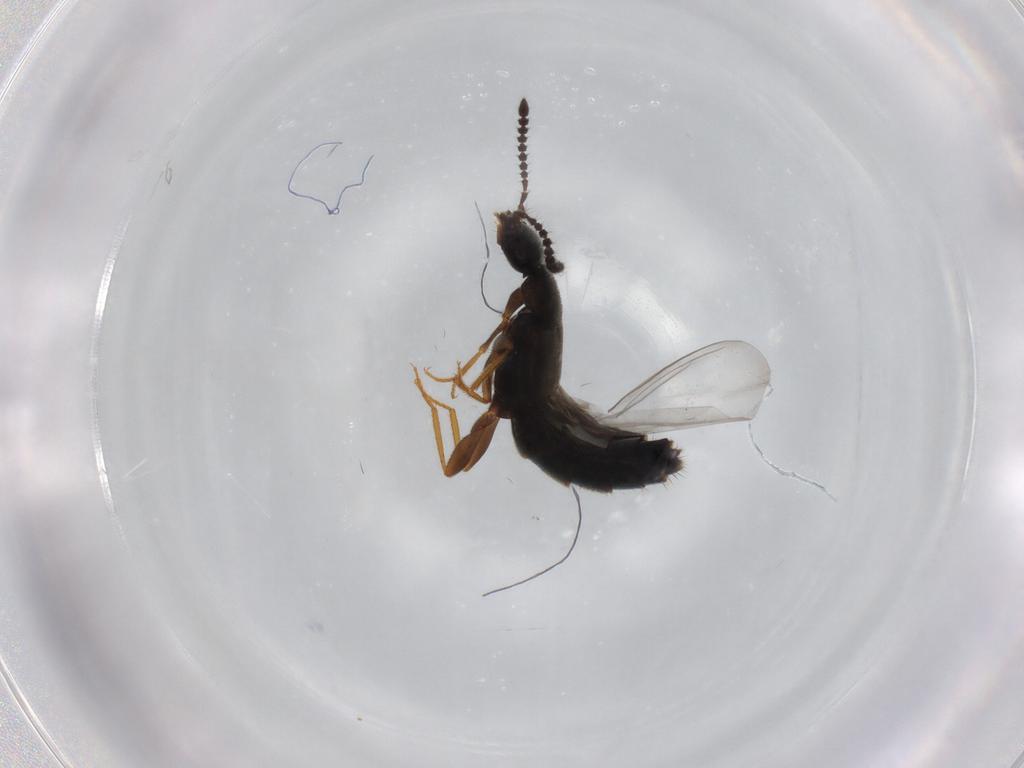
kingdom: Animalia
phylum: Arthropoda
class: Insecta
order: Coleoptera
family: Staphylinidae
